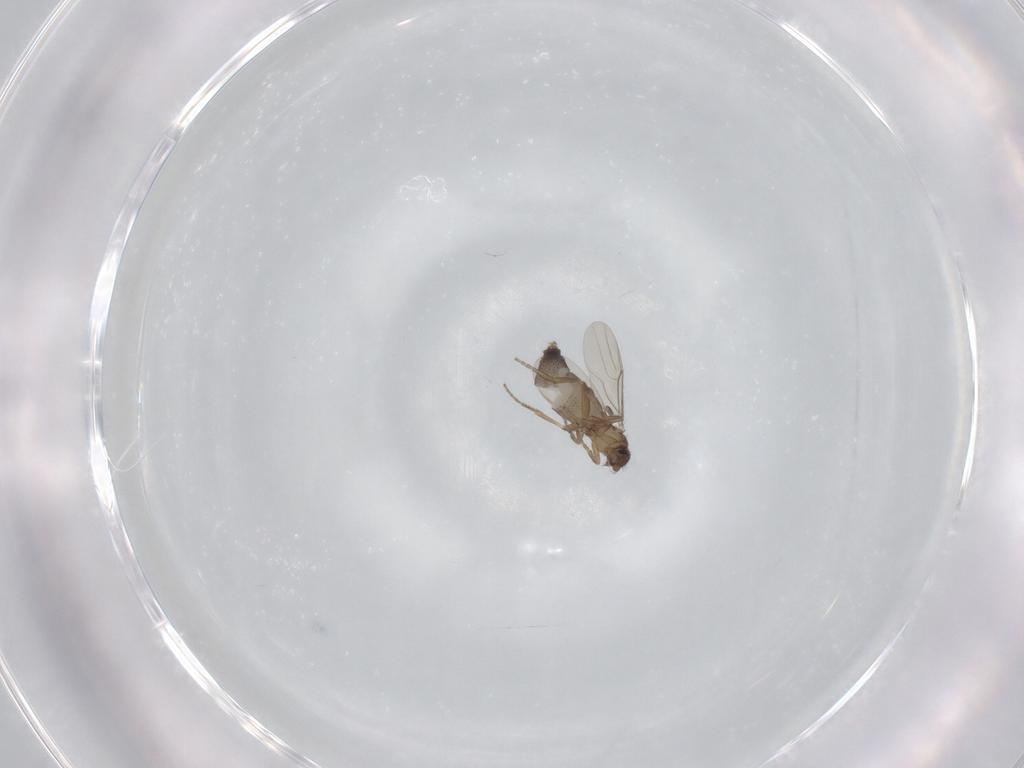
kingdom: Animalia
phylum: Arthropoda
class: Insecta
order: Diptera
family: Phoridae
